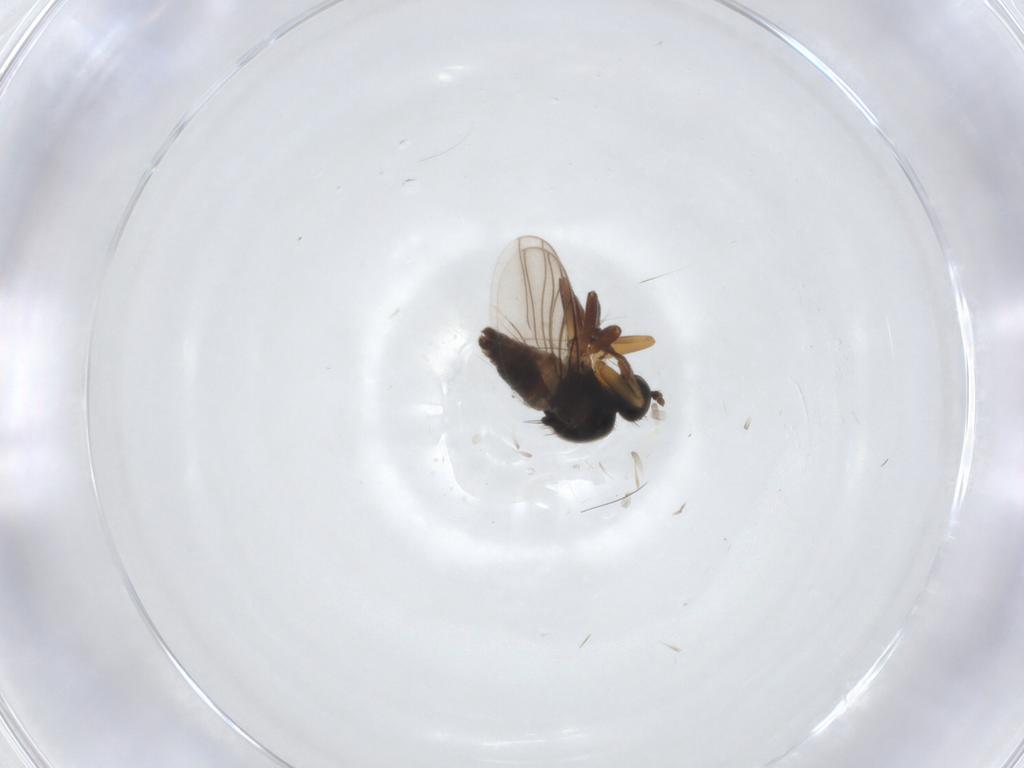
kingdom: Animalia
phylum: Arthropoda
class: Insecta
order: Diptera
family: Hybotidae
